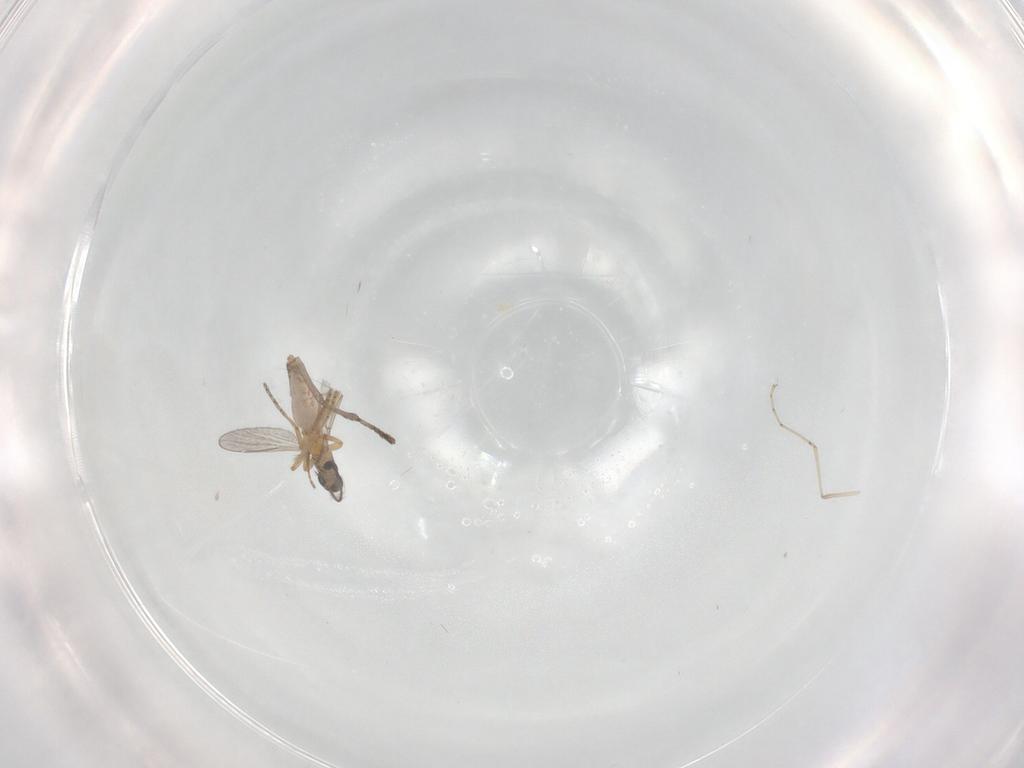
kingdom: Animalia
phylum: Arthropoda
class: Insecta
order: Diptera
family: Psychodidae
